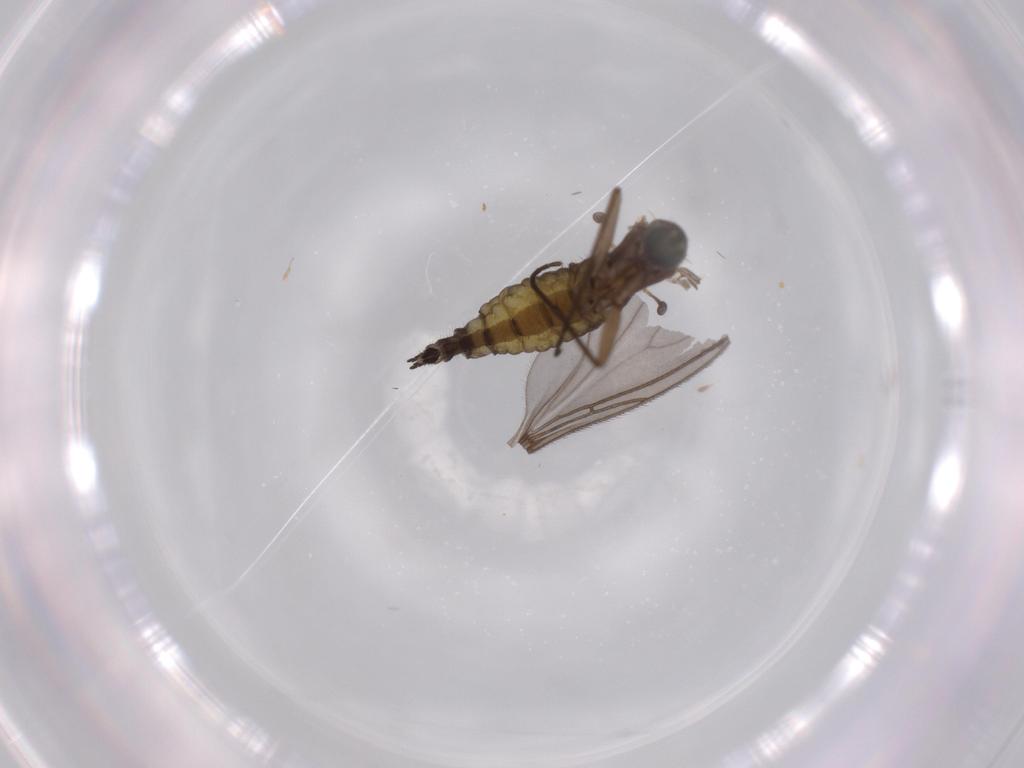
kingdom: Animalia
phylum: Arthropoda
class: Insecta
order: Diptera
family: Sciaridae
